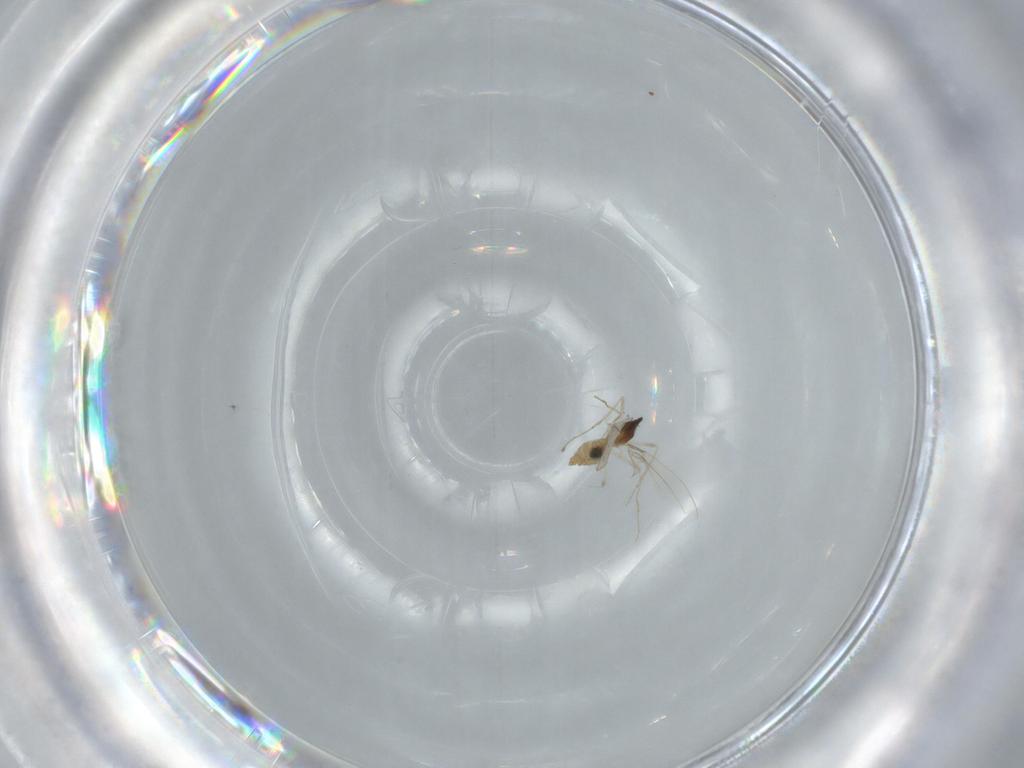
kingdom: Animalia
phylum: Arthropoda
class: Insecta
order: Diptera
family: Cecidomyiidae
